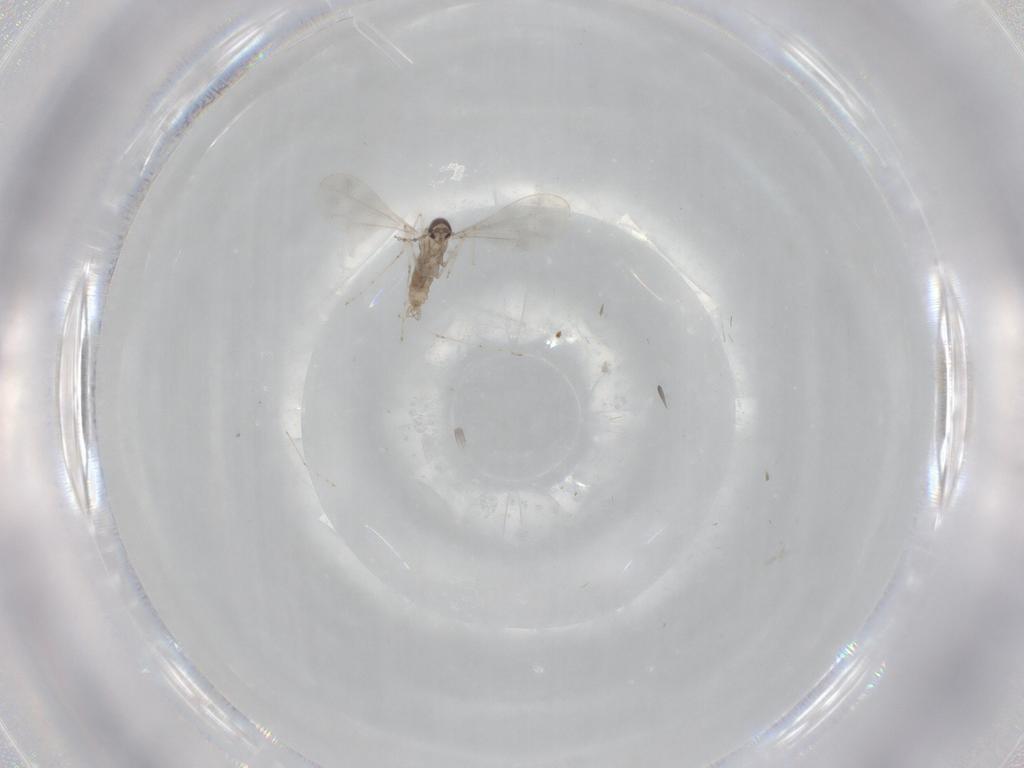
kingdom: Animalia
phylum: Arthropoda
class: Insecta
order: Diptera
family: Cecidomyiidae
